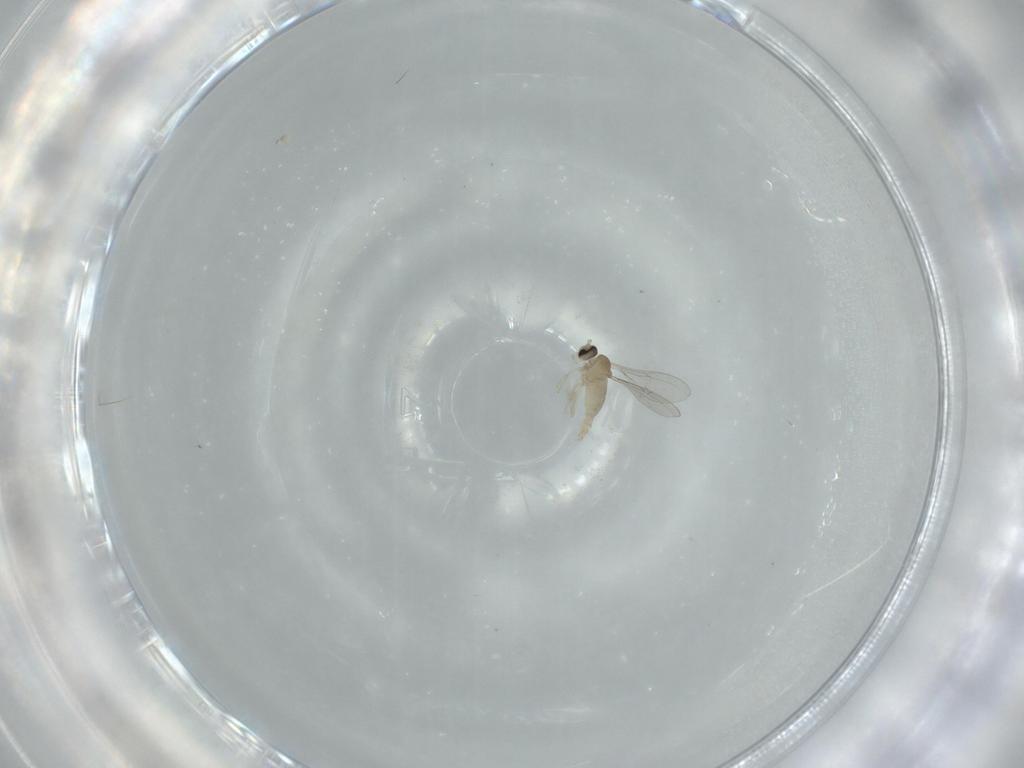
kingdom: Animalia
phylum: Arthropoda
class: Insecta
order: Diptera
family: Cecidomyiidae
